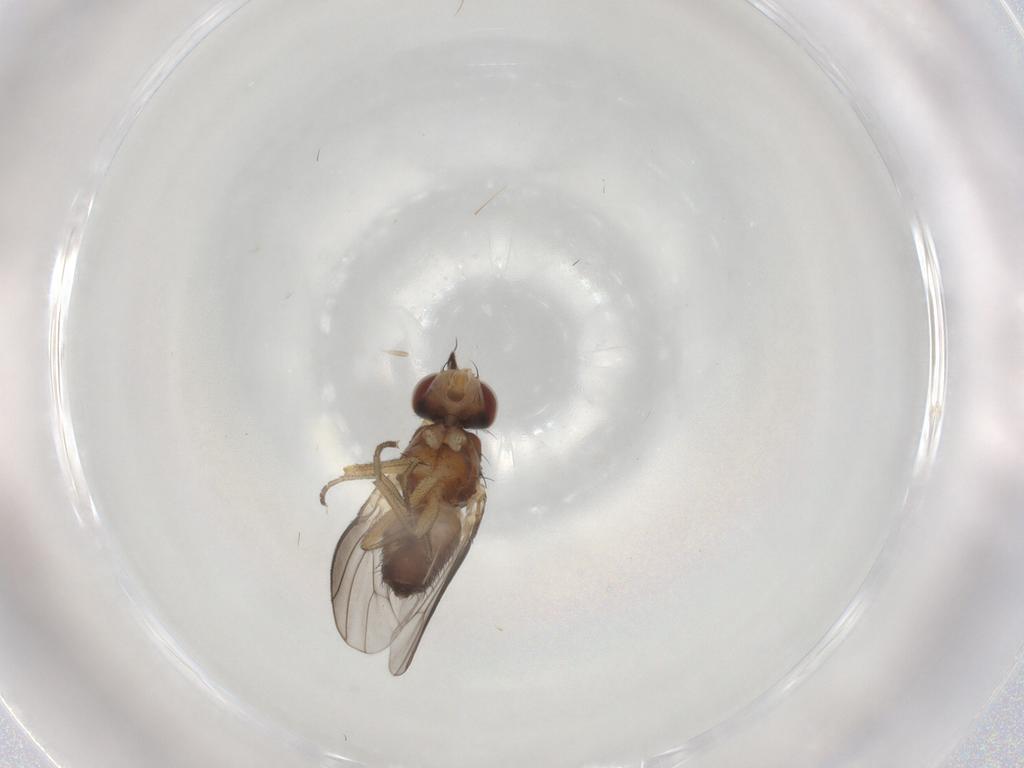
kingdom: Animalia
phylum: Arthropoda
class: Insecta
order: Diptera
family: Heleomyzidae
